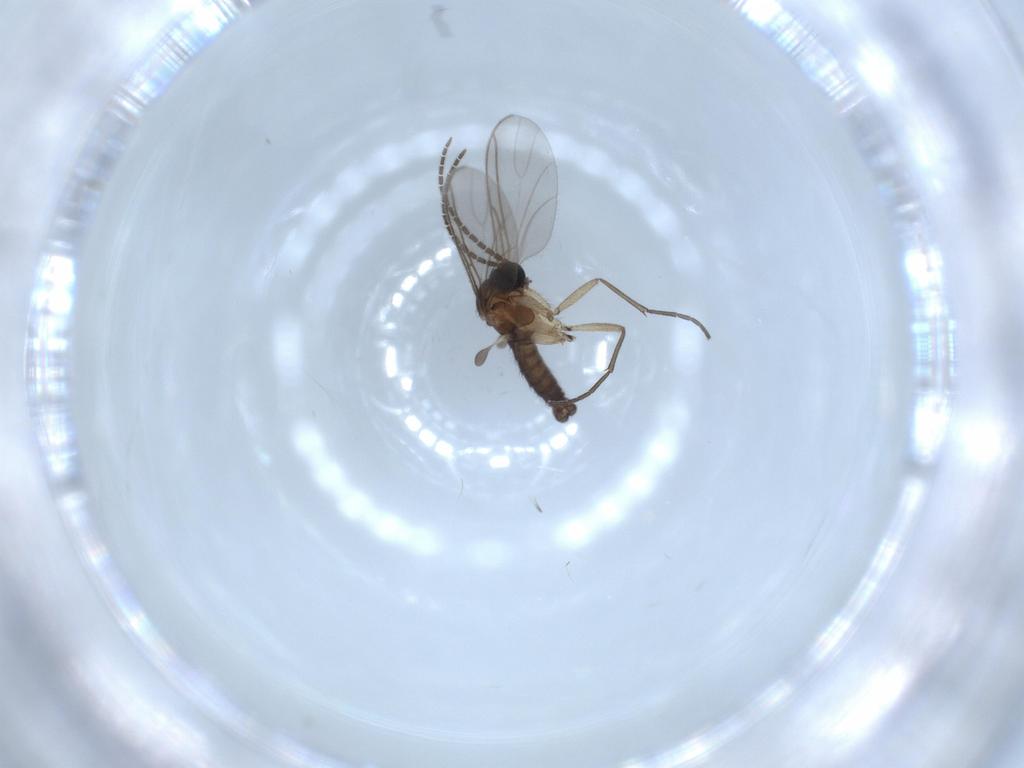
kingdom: Animalia
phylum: Arthropoda
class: Insecta
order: Diptera
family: Sciaridae
